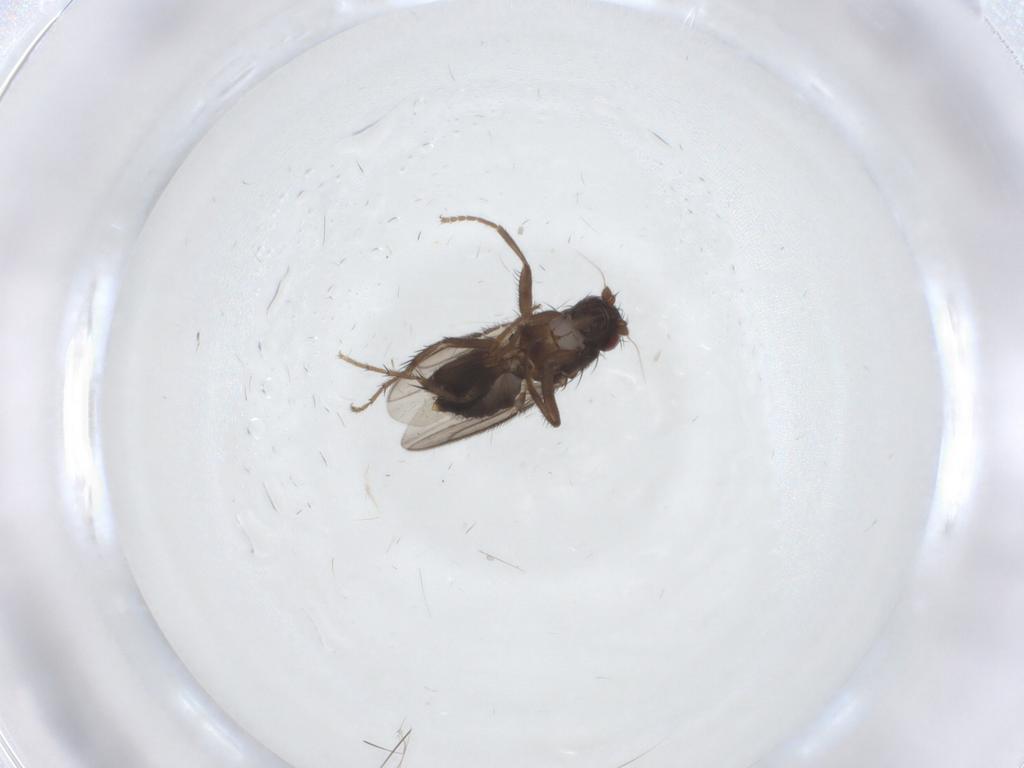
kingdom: Animalia
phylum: Arthropoda
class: Insecta
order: Diptera
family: Sphaeroceridae
